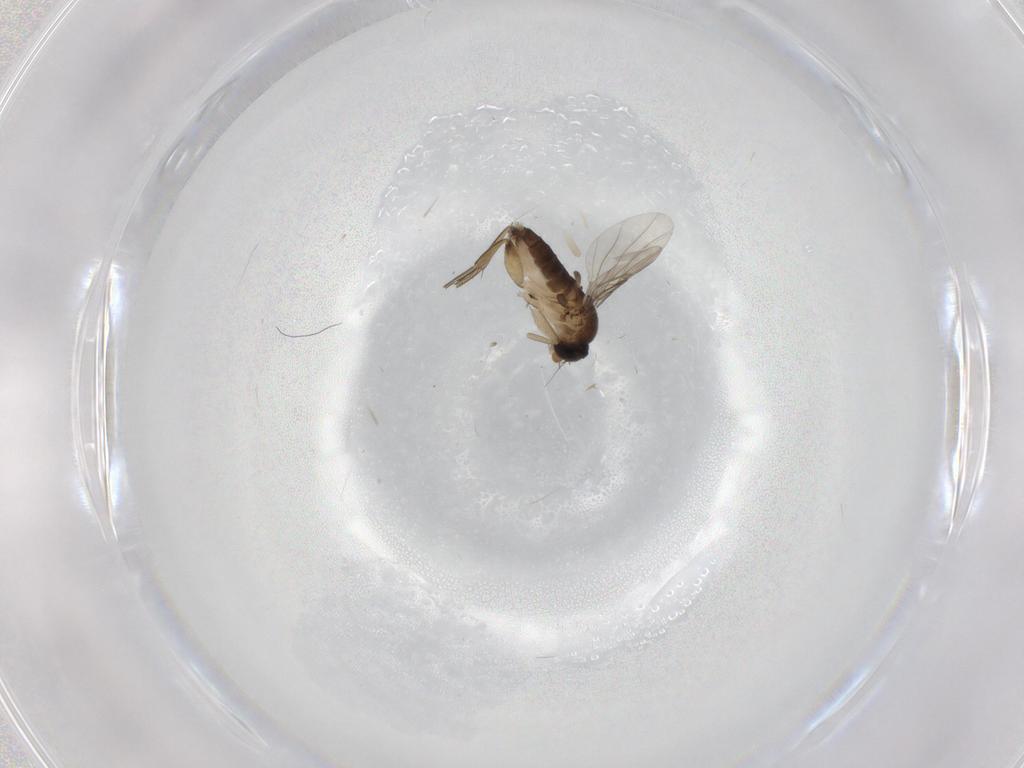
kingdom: Animalia
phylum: Arthropoda
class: Insecta
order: Diptera
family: Phoridae
